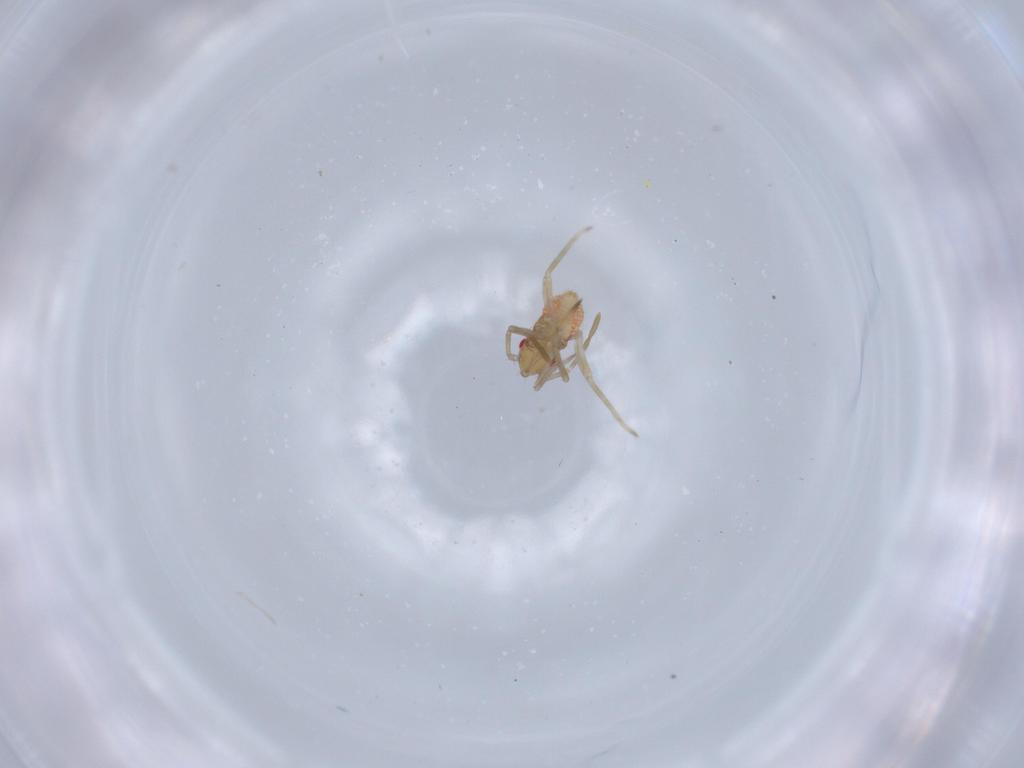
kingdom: Animalia
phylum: Arthropoda
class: Insecta
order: Hemiptera
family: Miridae
